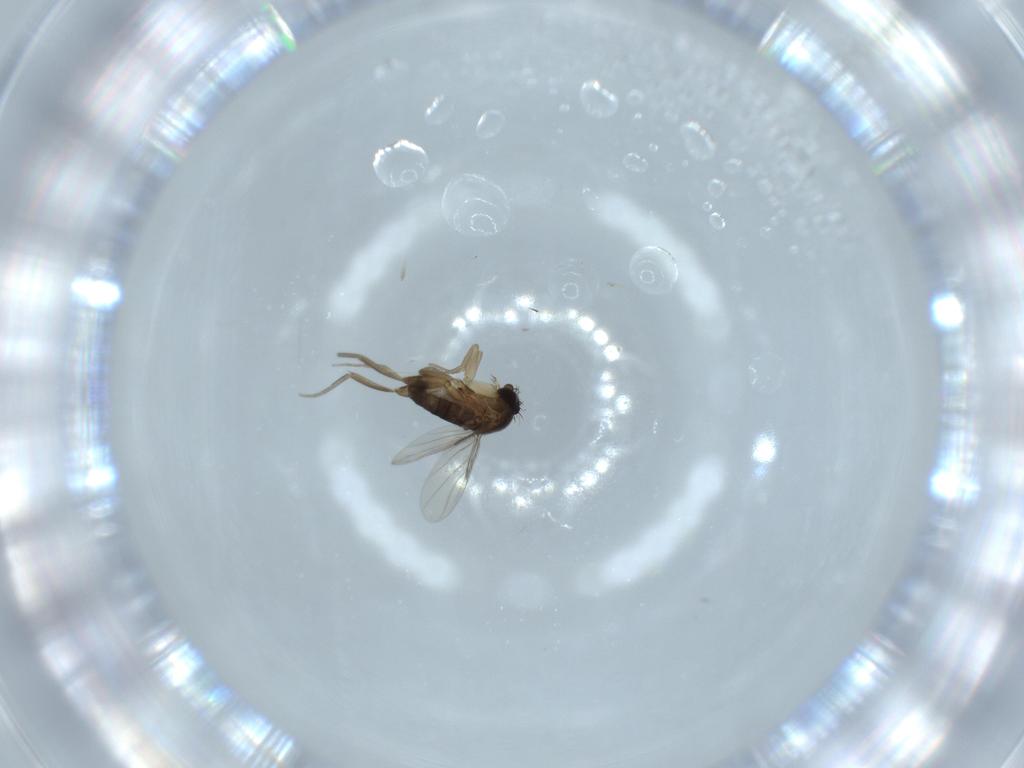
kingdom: Animalia
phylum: Arthropoda
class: Insecta
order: Diptera
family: Phoridae
